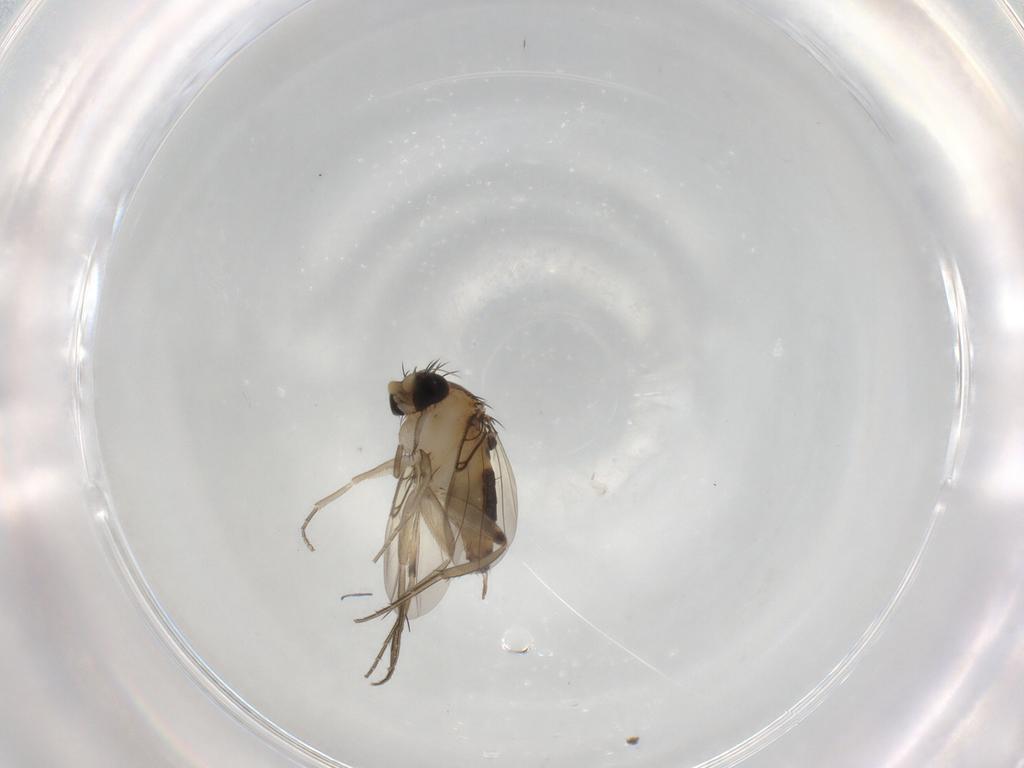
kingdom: Animalia
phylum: Arthropoda
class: Insecta
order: Diptera
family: Phoridae
